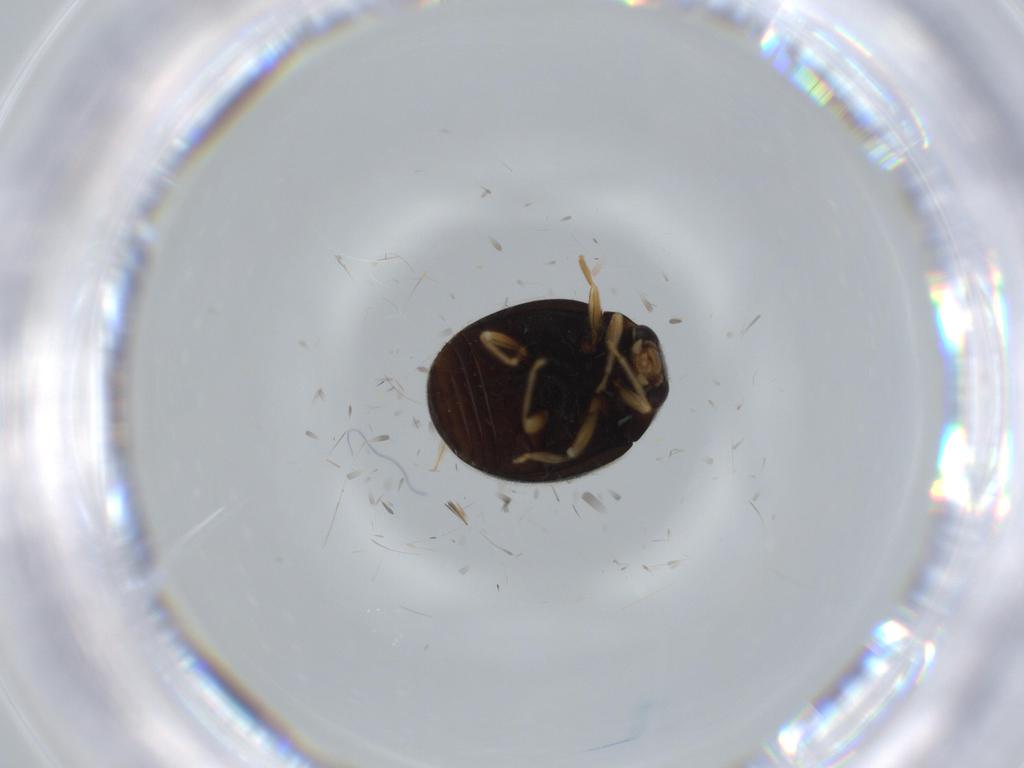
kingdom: Animalia
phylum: Arthropoda
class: Insecta
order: Coleoptera
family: Coccinellidae
